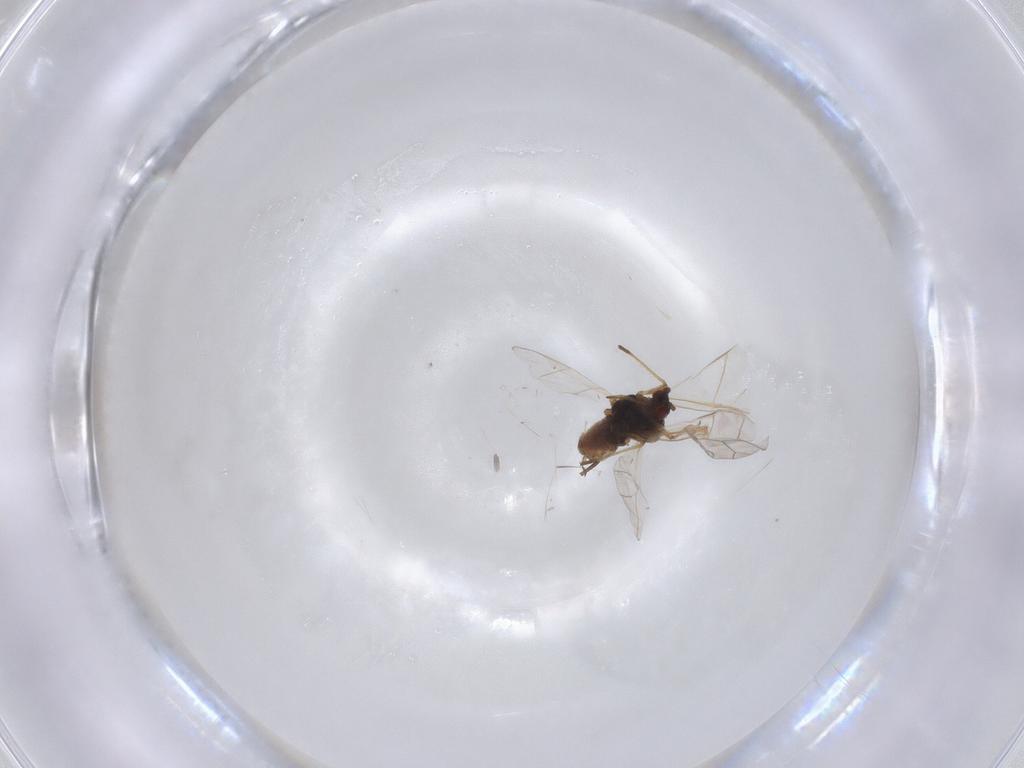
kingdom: Animalia
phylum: Arthropoda
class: Insecta
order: Hemiptera
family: Aphididae
